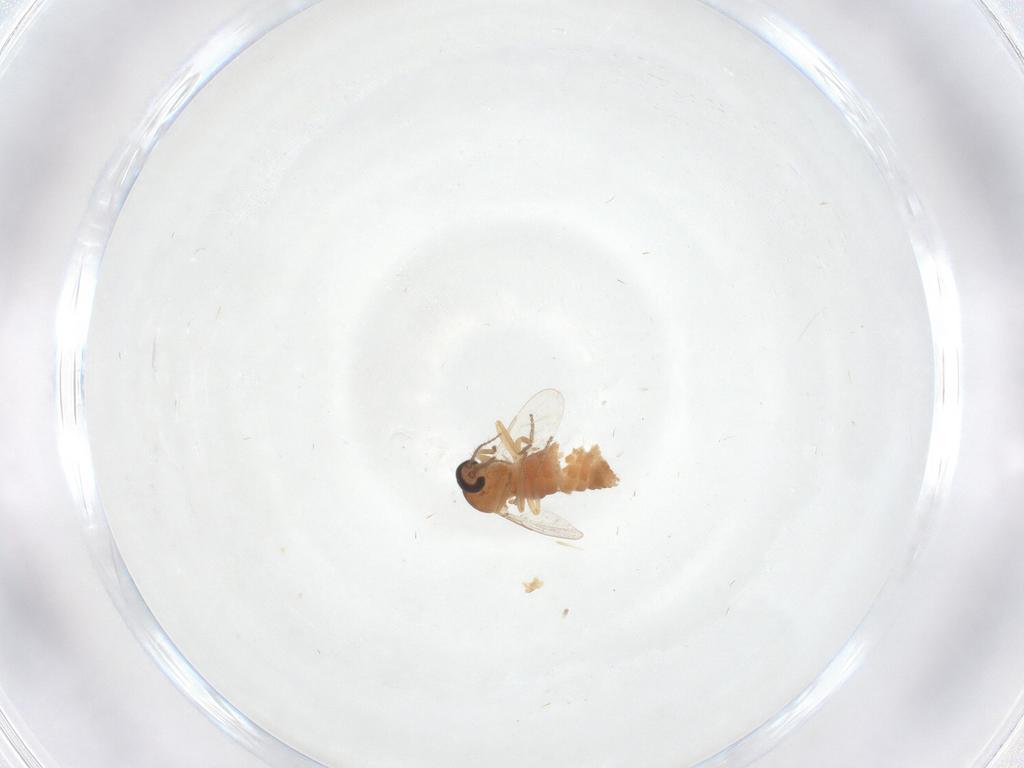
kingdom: Animalia
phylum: Arthropoda
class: Insecta
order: Diptera
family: Ceratopogonidae
